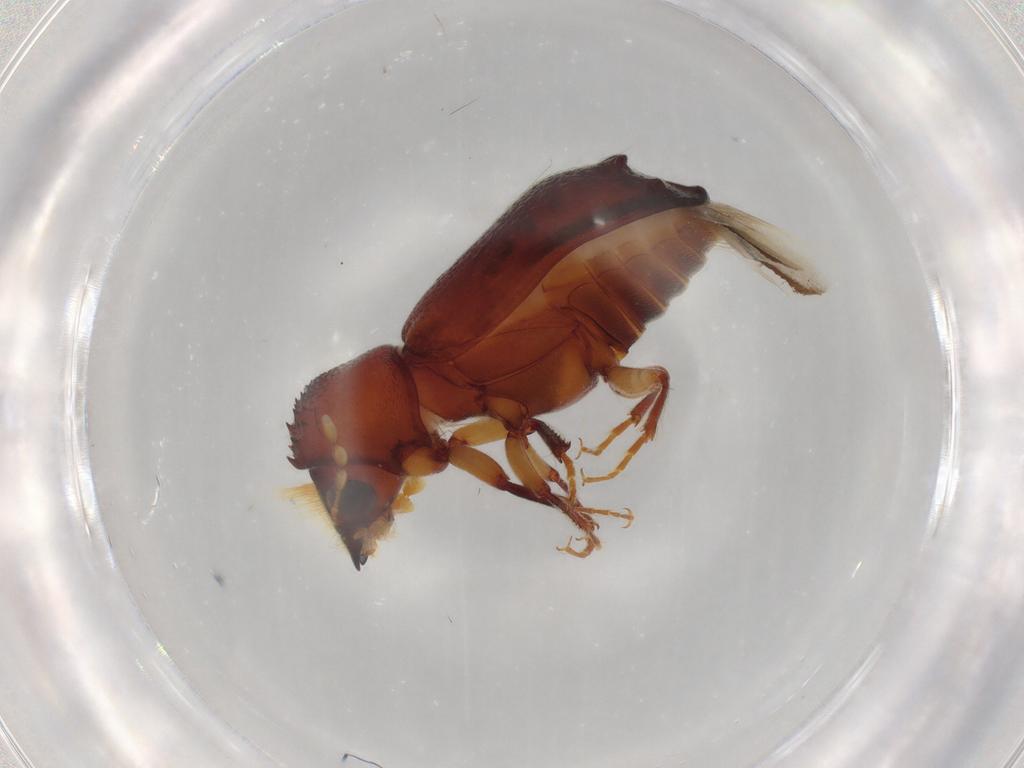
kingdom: Animalia
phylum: Arthropoda
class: Insecta
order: Coleoptera
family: Bostrichidae
